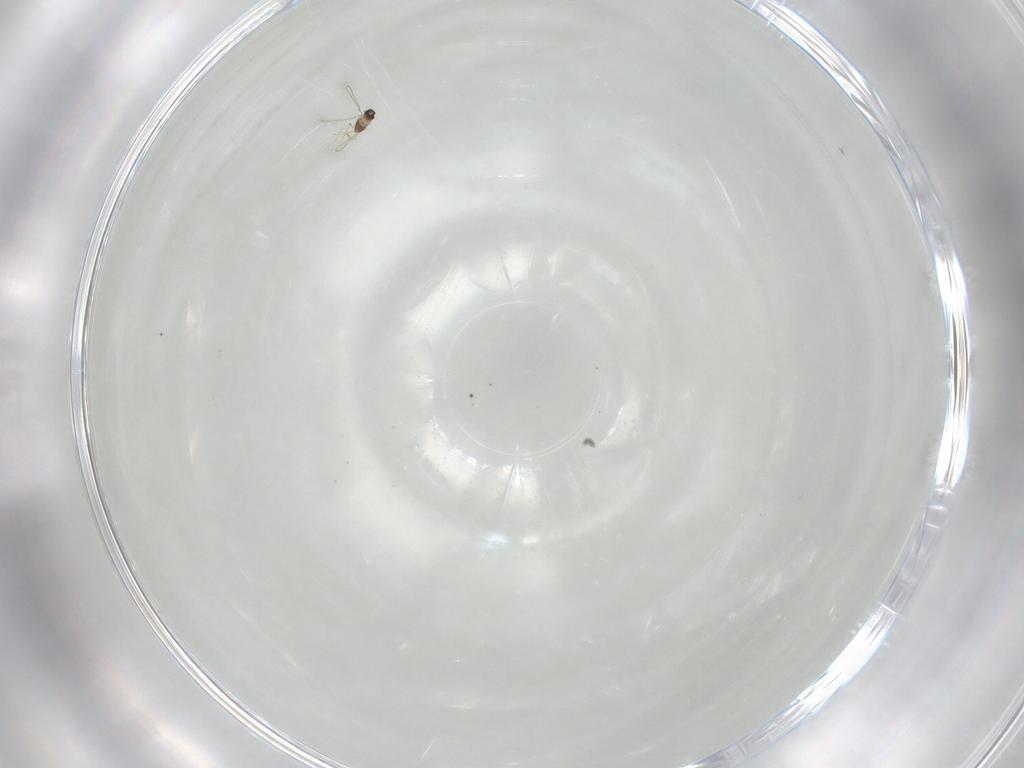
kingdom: Animalia
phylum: Arthropoda
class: Insecta
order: Hymenoptera
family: Mymaridae
